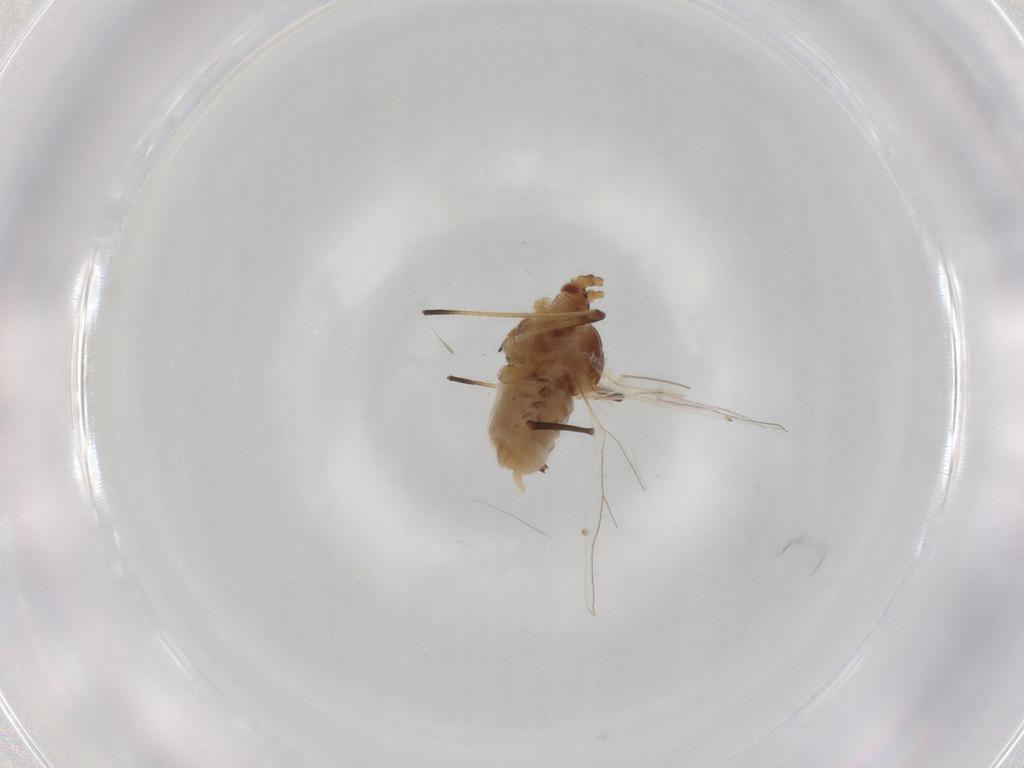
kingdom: Animalia
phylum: Arthropoda
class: Insecta
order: Hemiptera
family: Aphididae
